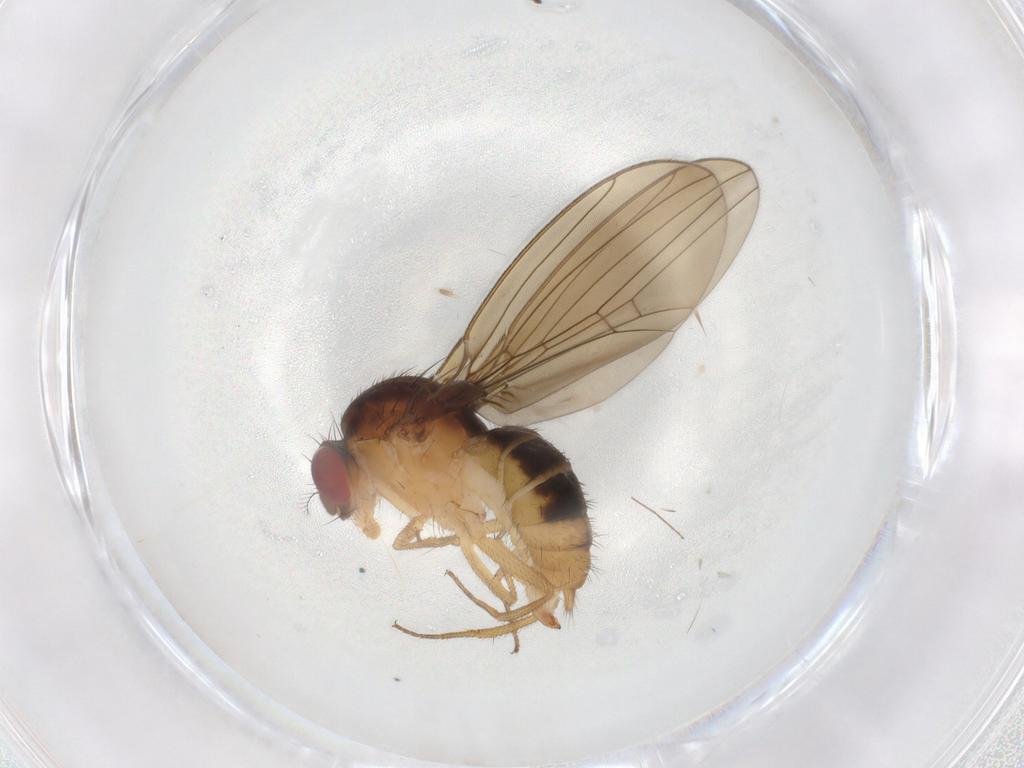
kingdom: Animalia
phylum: Arthropoda
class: Insecta
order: Diptera
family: Drosophilidae
